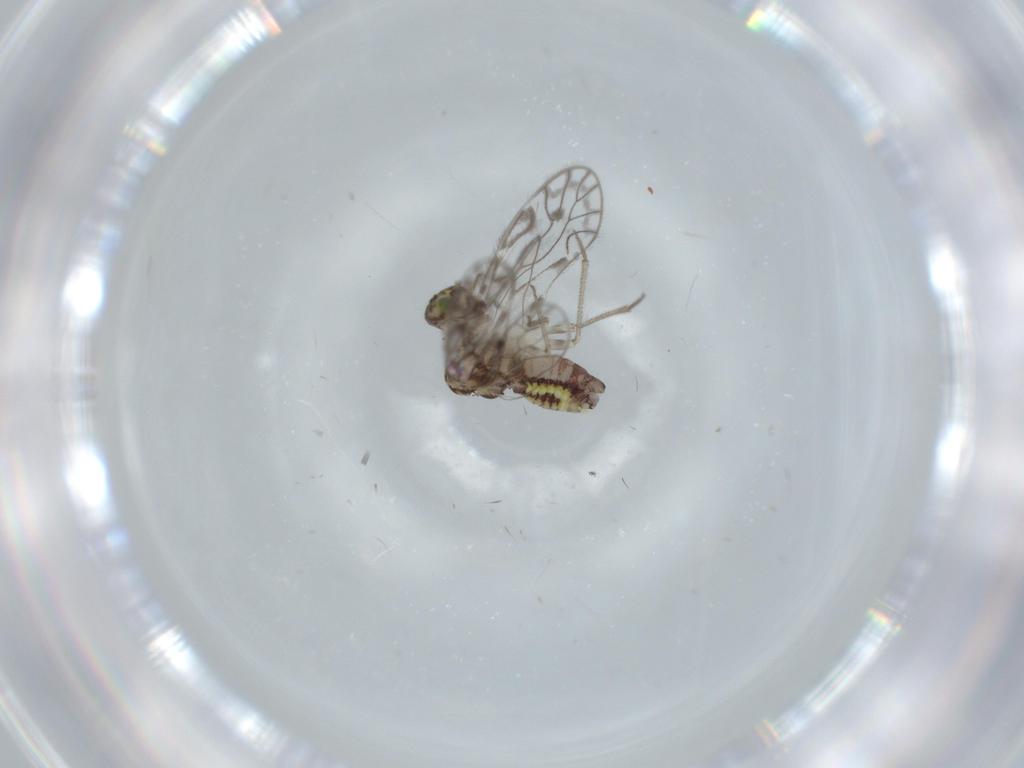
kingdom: Animalia
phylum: Arthropoda
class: Insecta
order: Psocodea
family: Psocidae
